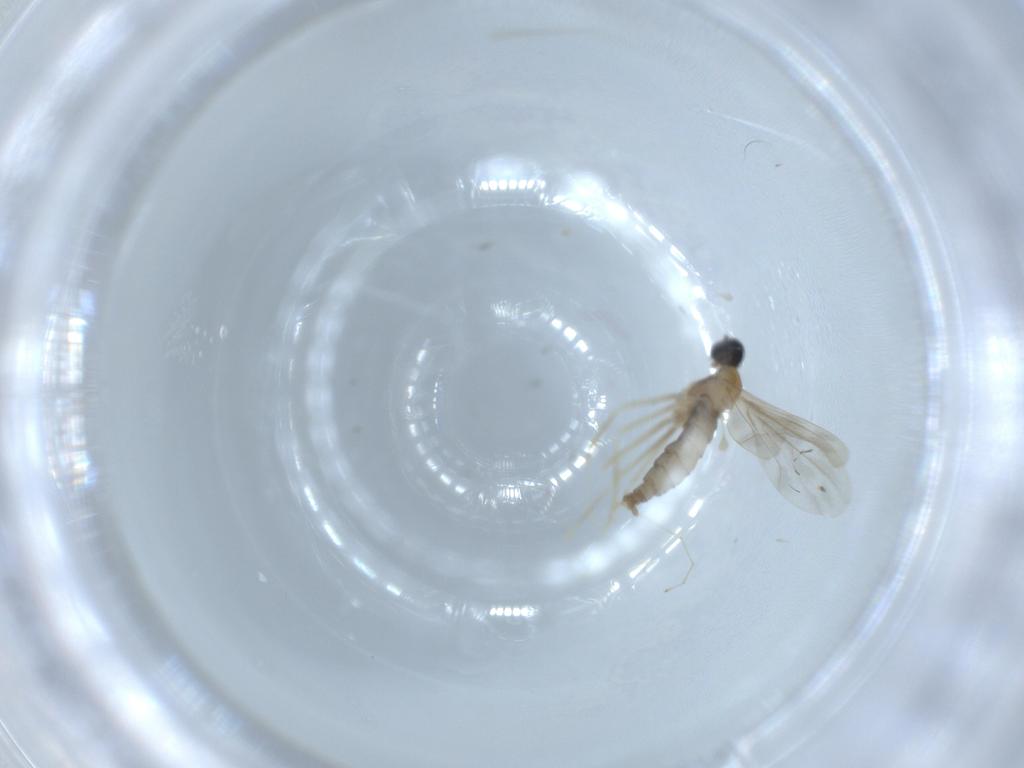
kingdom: Animalia
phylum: Arthropoda
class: Insecta
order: Diptera
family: Cecidomyiidae
